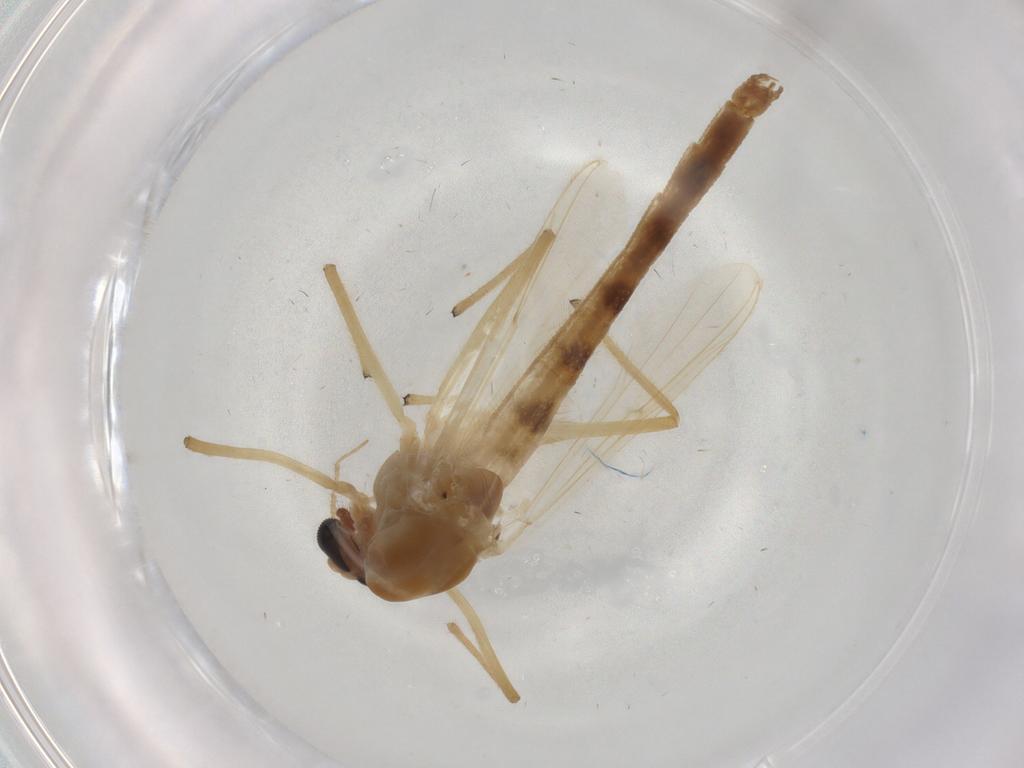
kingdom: Animalia
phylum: Arthropoda
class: Insecta
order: Diptera
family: Chironomidae
